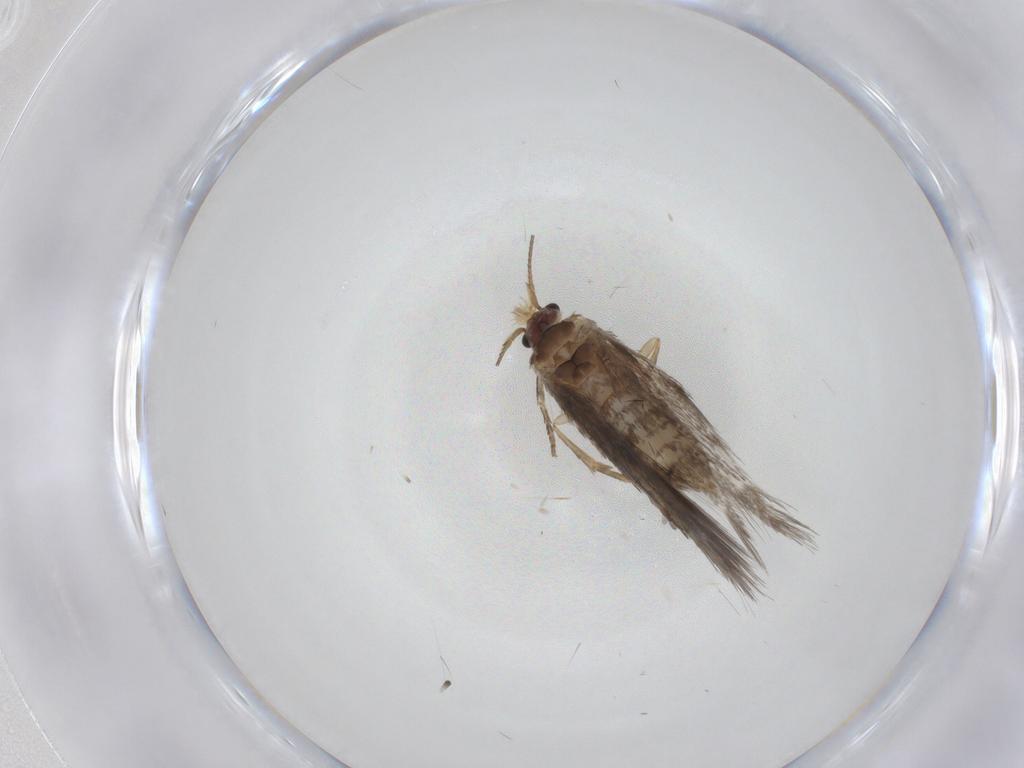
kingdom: Animalia
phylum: Arthropoda
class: Insecta
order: Lepidoptera
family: Nepticulidae
